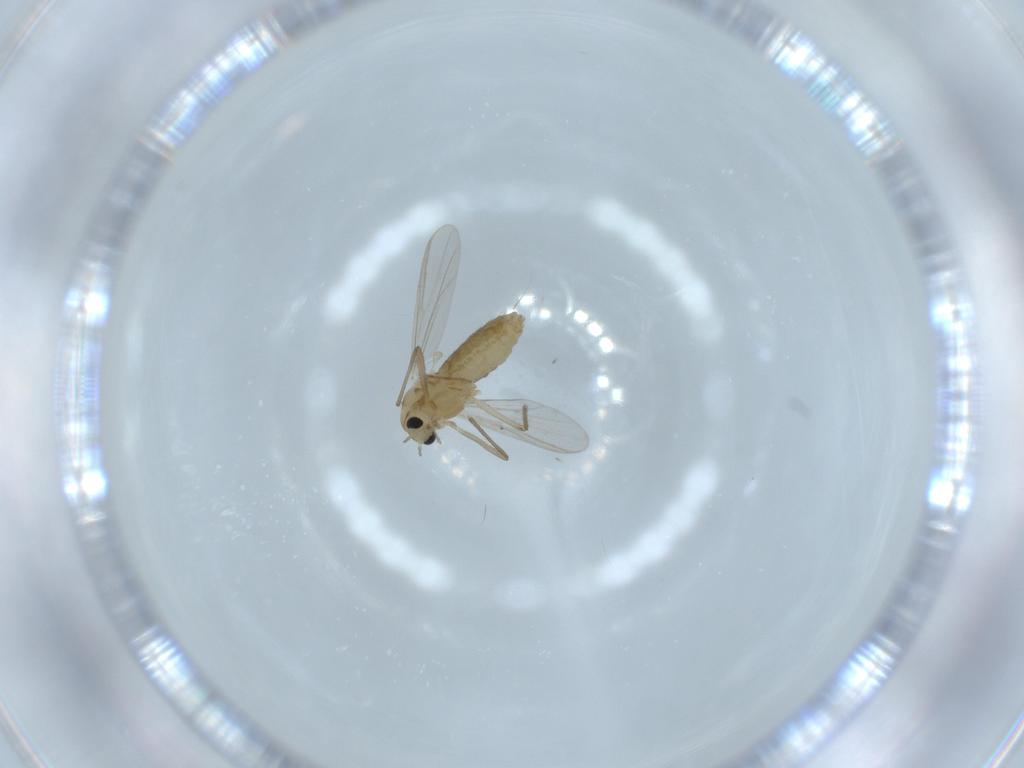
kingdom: Animalia
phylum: Arthropoda
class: Insecta
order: Diptera
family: Chironomidae
